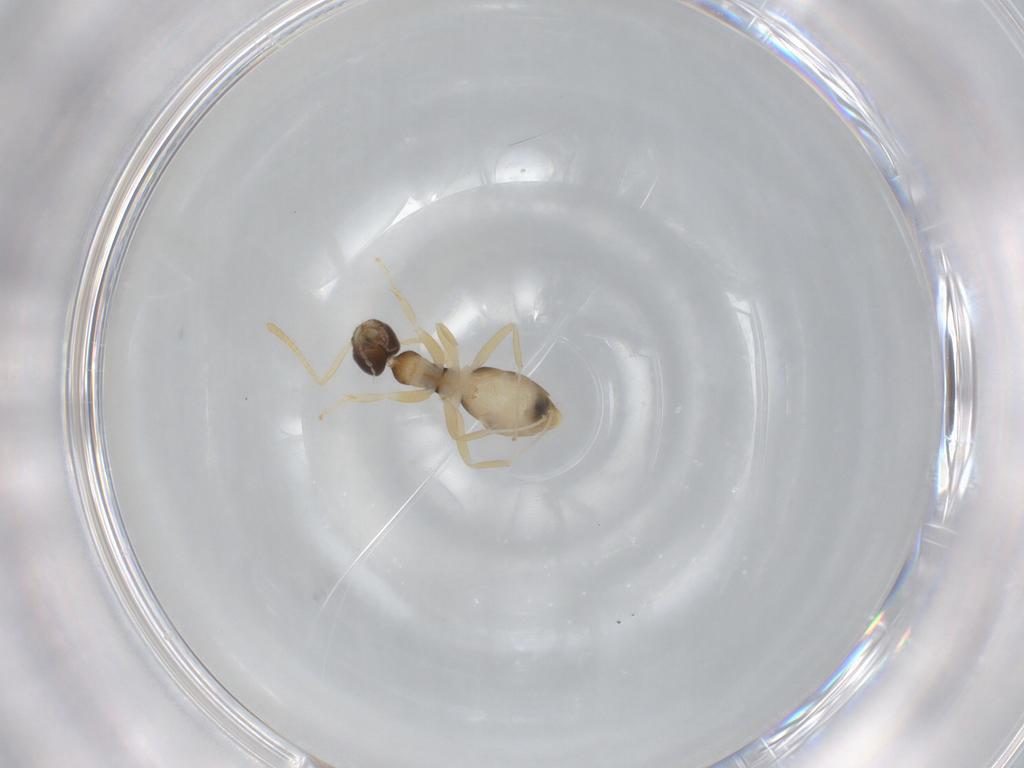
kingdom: Animalia
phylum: Arthropoda
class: Insecta
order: Hymenoptera
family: Formicidae
